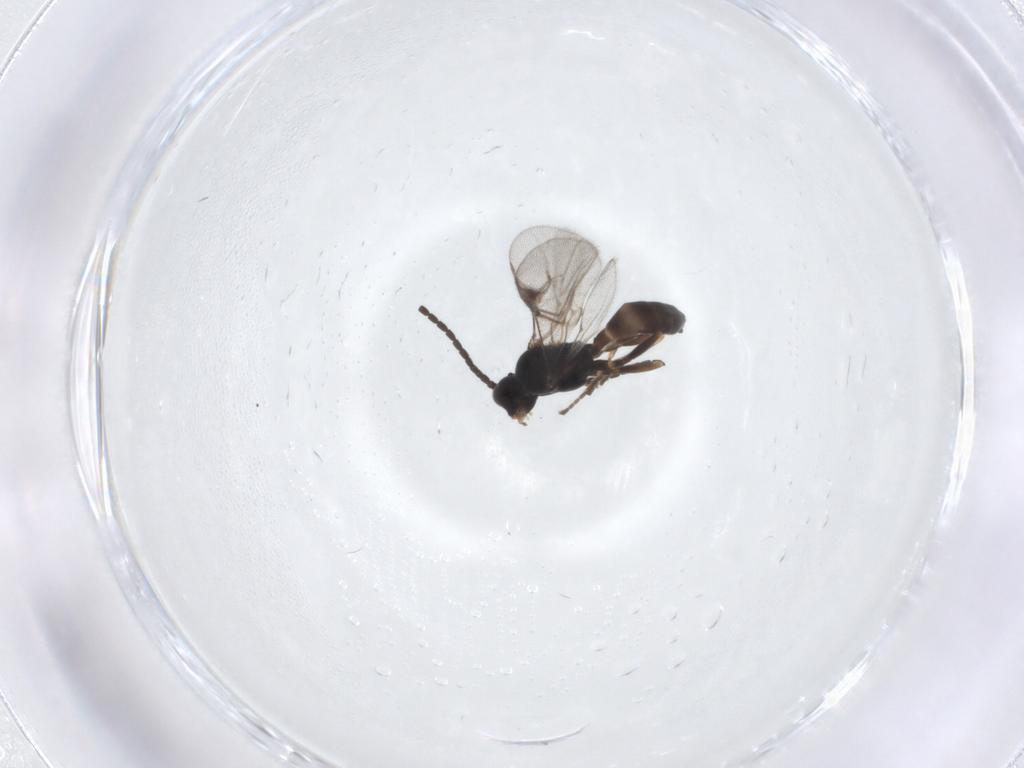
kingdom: Animalia
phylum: Arthropoda
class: Insecta
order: Hymenoptera
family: Braconidae
